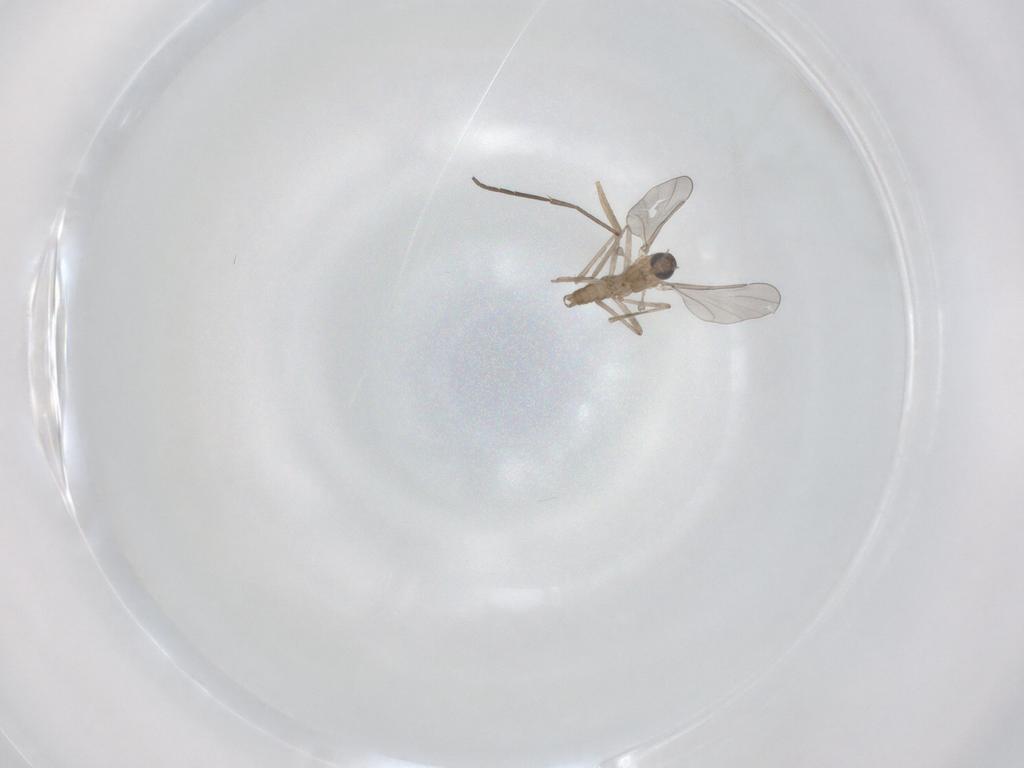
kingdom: Animalia
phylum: Arthropoda
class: Insecta
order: Diptera
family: Sciaridae
